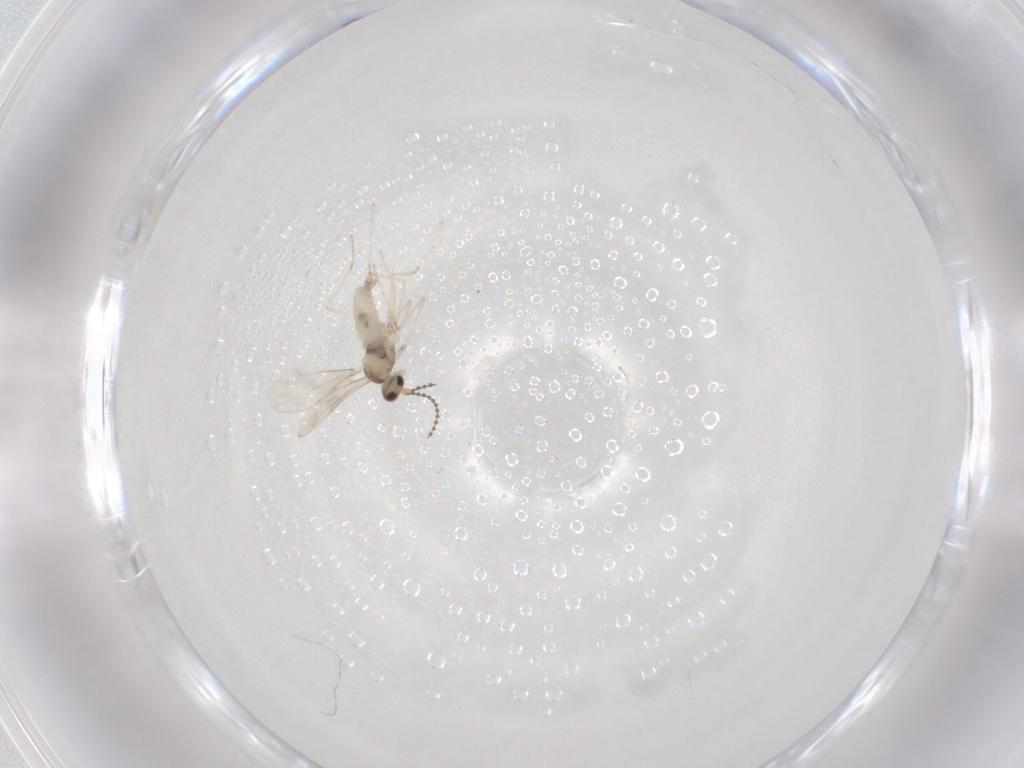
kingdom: Animalia
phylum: Arthropoda
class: Insecta
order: Diptera
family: Cecidomyiidae
